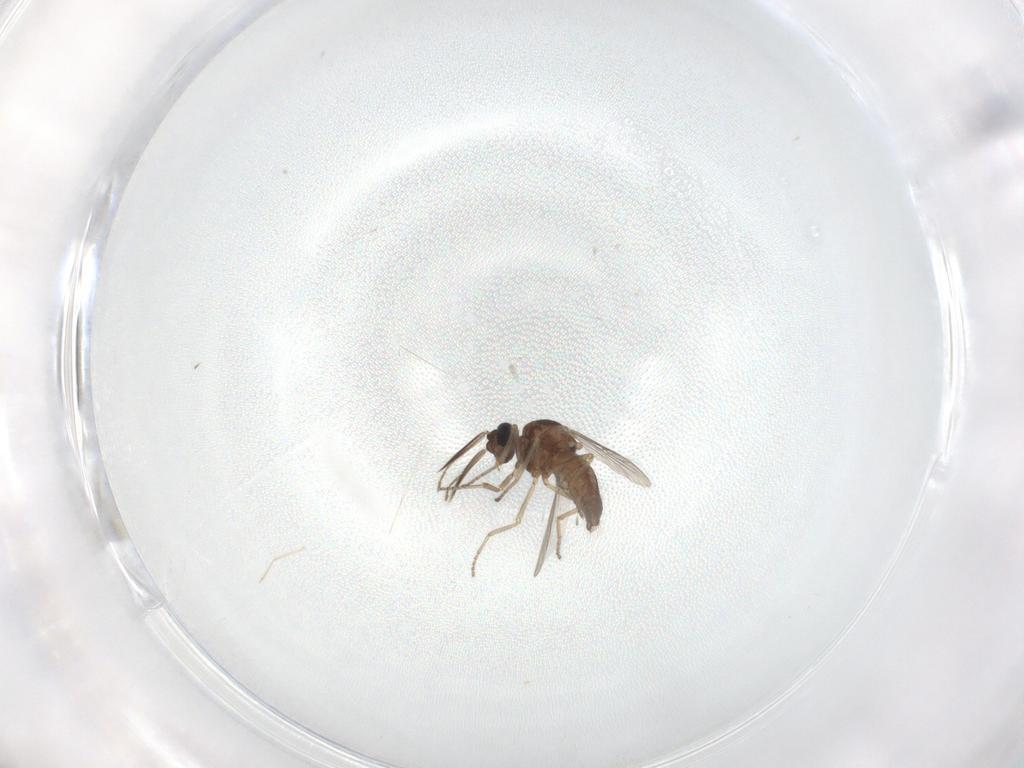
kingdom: Animalia
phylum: Arthropoda
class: Insecta
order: Diptera
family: Ceratopogonidae
